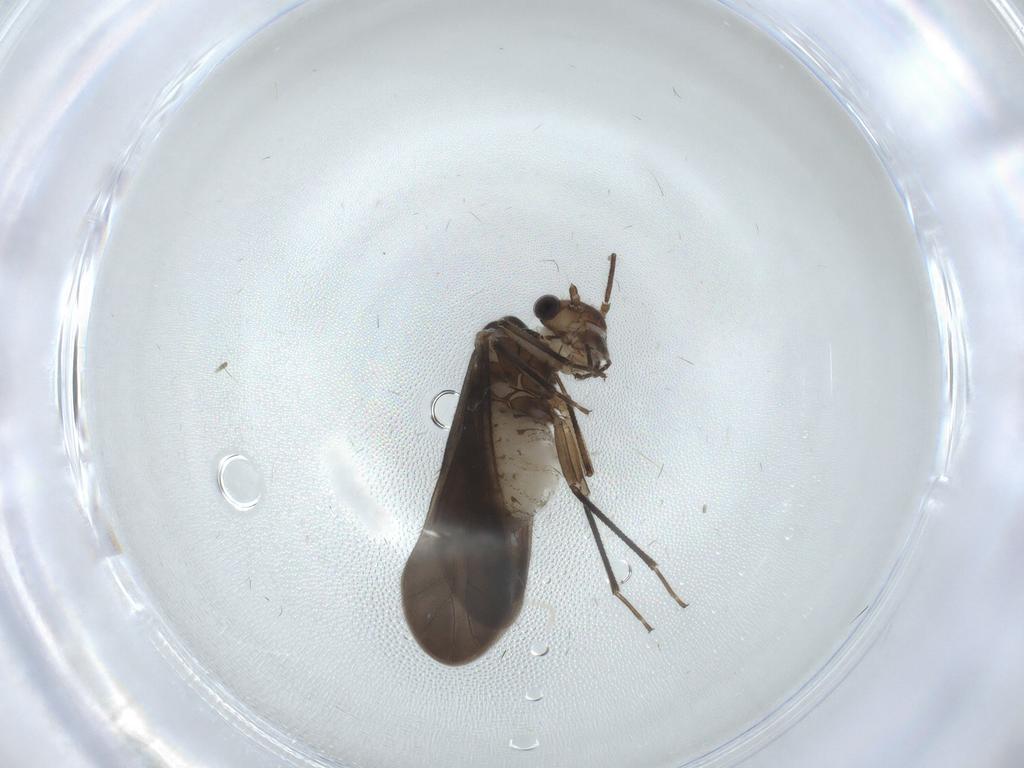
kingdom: Animalia
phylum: Arthropoda
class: Insecta
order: Psocodea
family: Caeciliusidae
